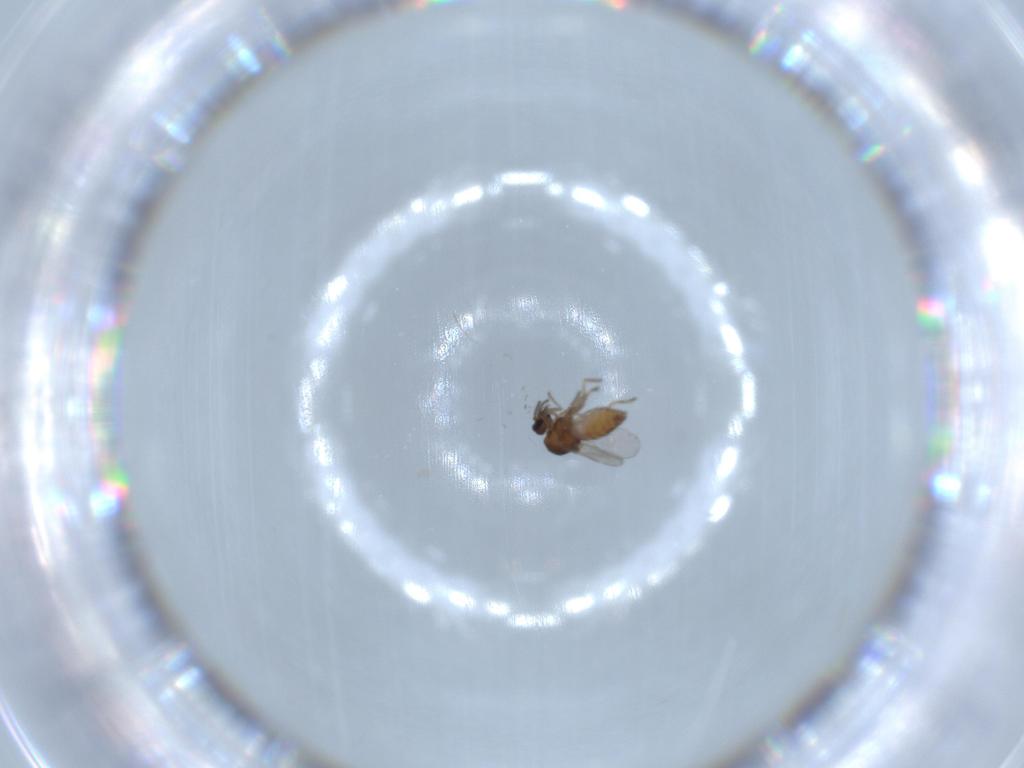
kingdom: Animalia
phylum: Arthropoda
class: Insecta
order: Diptera
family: Ceratopogonidae
